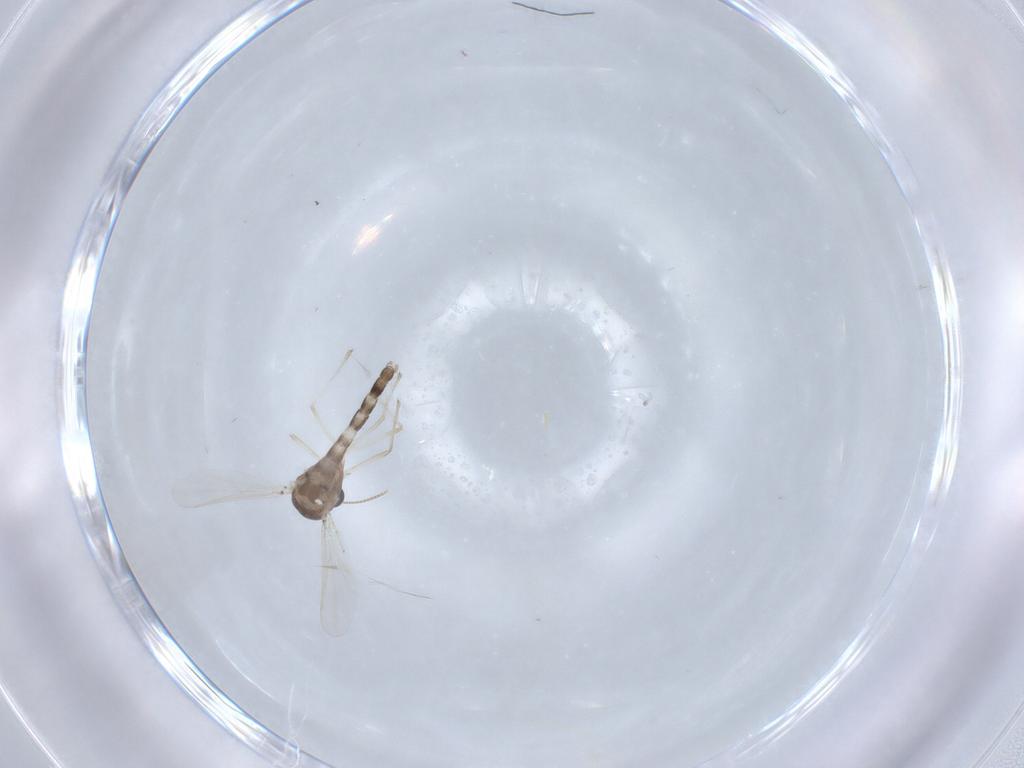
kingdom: Animalia
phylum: Arthropoda
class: Insecta
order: Diptera
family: Chironomidae
